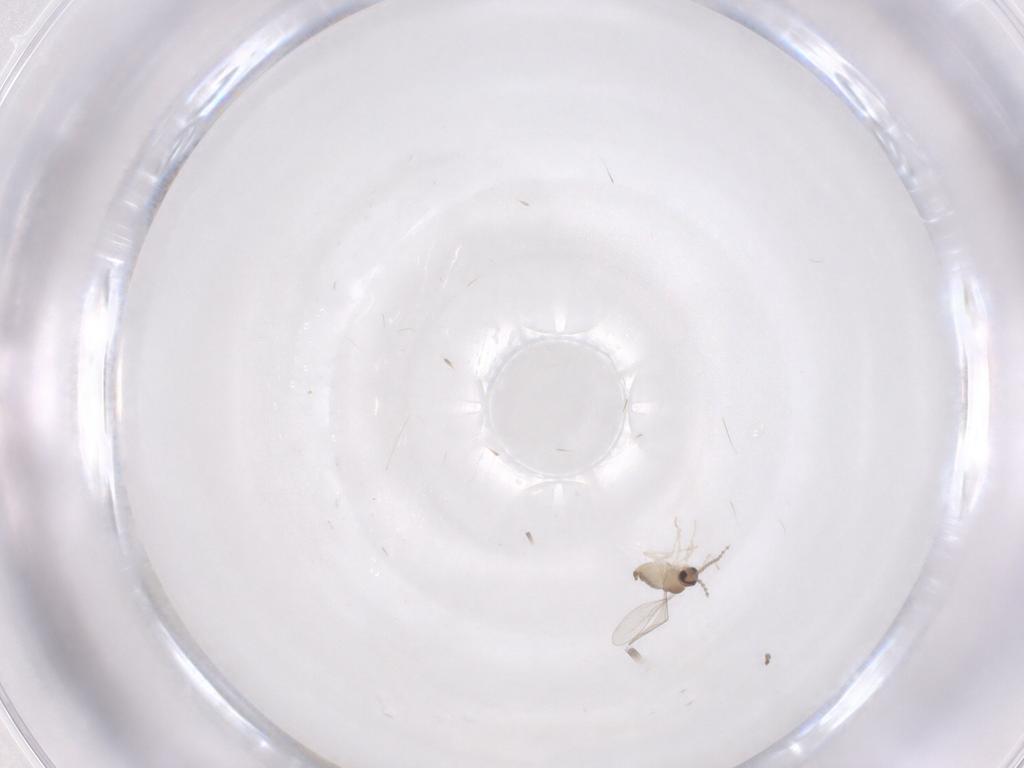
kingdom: Animalia
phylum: Arthropoda
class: Insecta
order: Diptera
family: Cecidomyiidae
